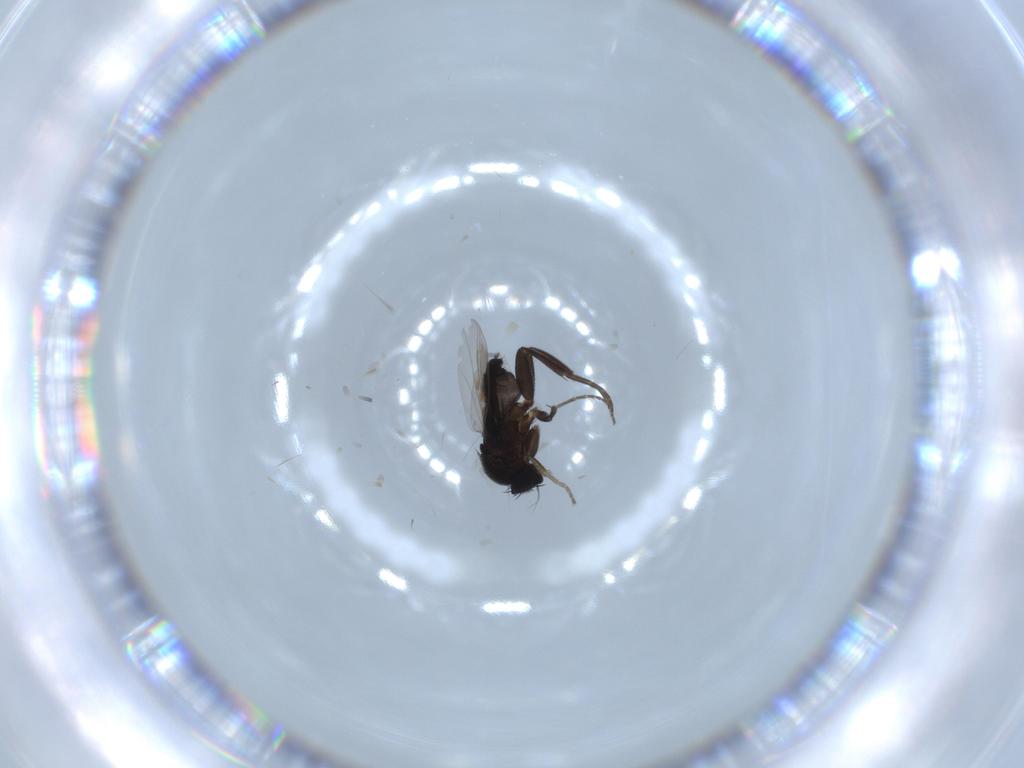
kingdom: Animalia
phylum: Arthropoda
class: Insecta
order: Diptera
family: Phoridae
